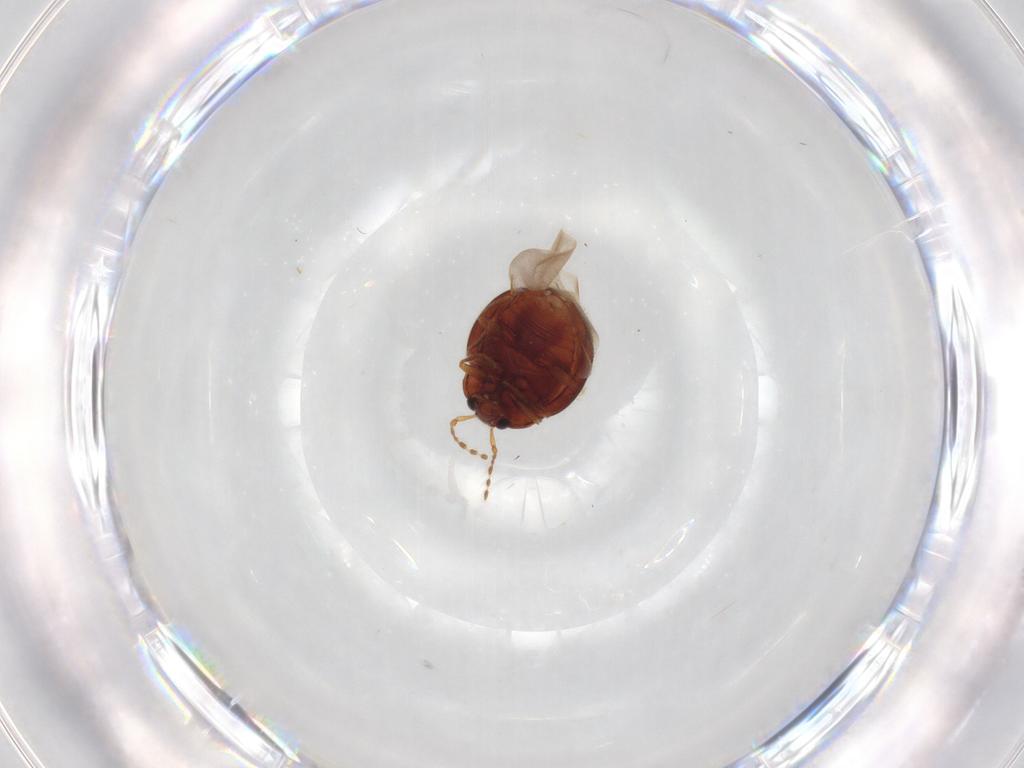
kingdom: Animalia
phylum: Arthropoda
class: Insecta
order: Coleoptera
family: Anamorphidae
